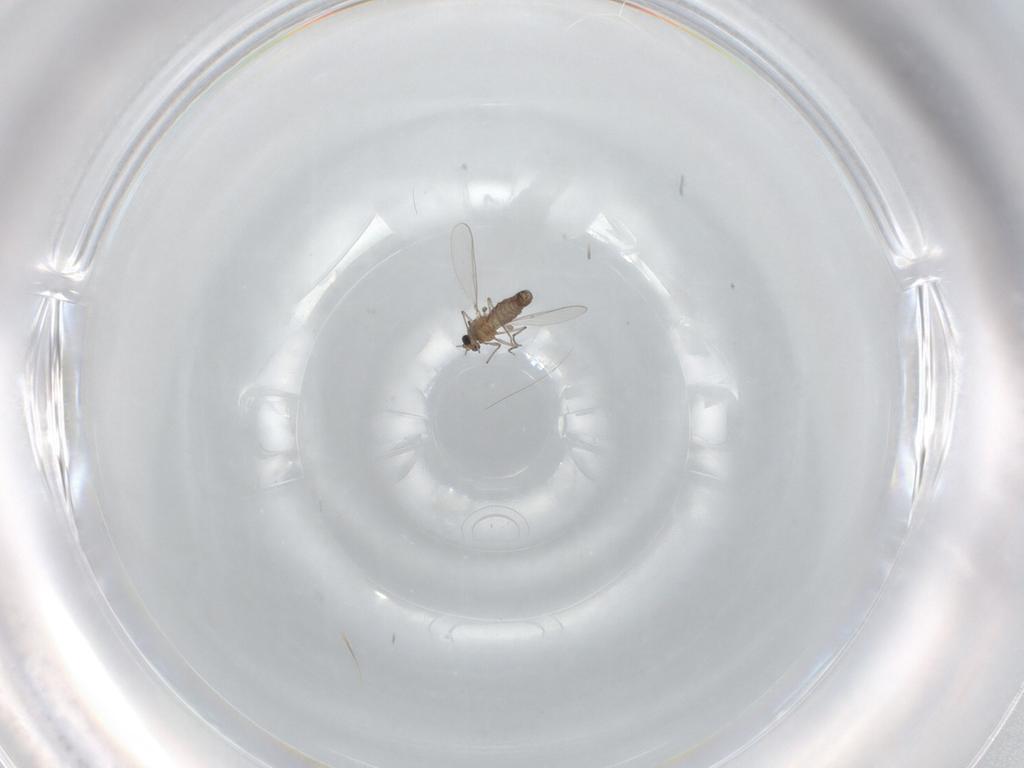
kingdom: Animalia
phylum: Arthropoda
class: Insecta
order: Diptera
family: Chironomidae
